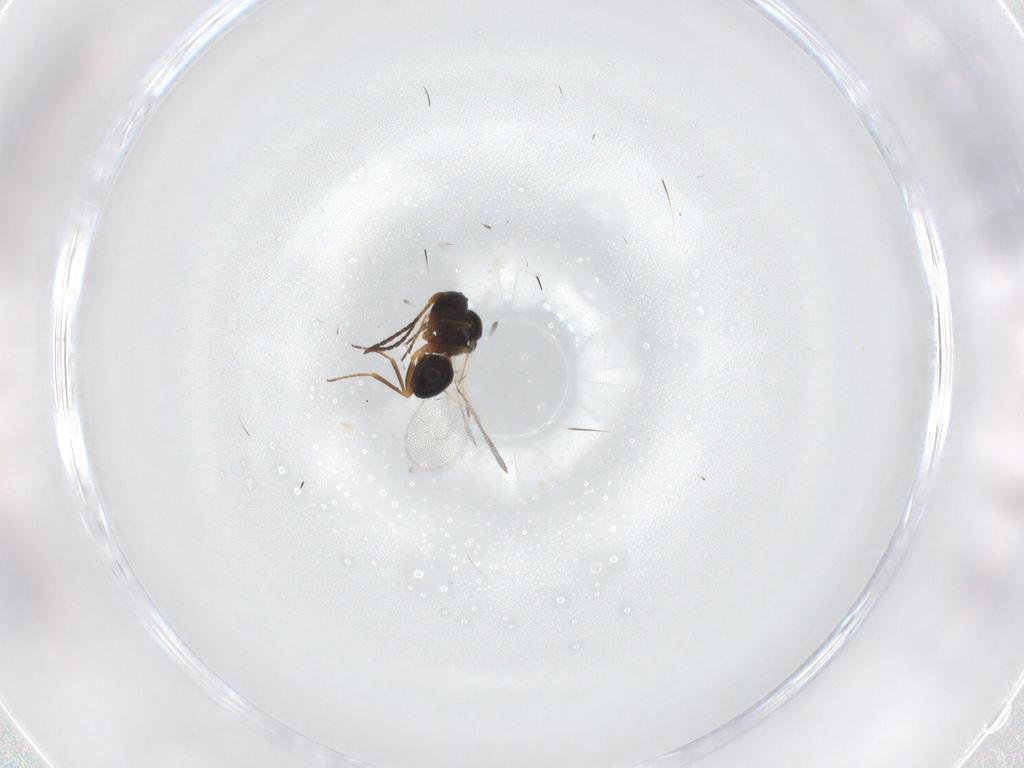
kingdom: Animalia
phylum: Arthropoda
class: Insecta
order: Hymenoptera
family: Figitidae
